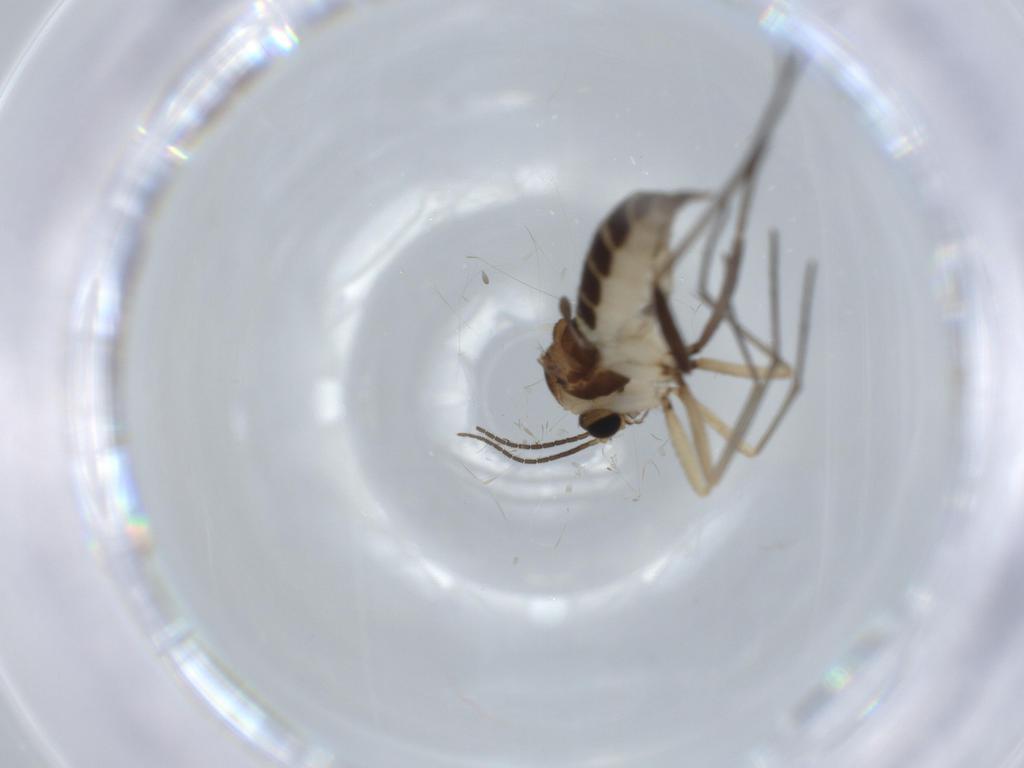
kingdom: Animalia
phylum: Arthropoda
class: Insecta
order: Diptera
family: Sciaridae
